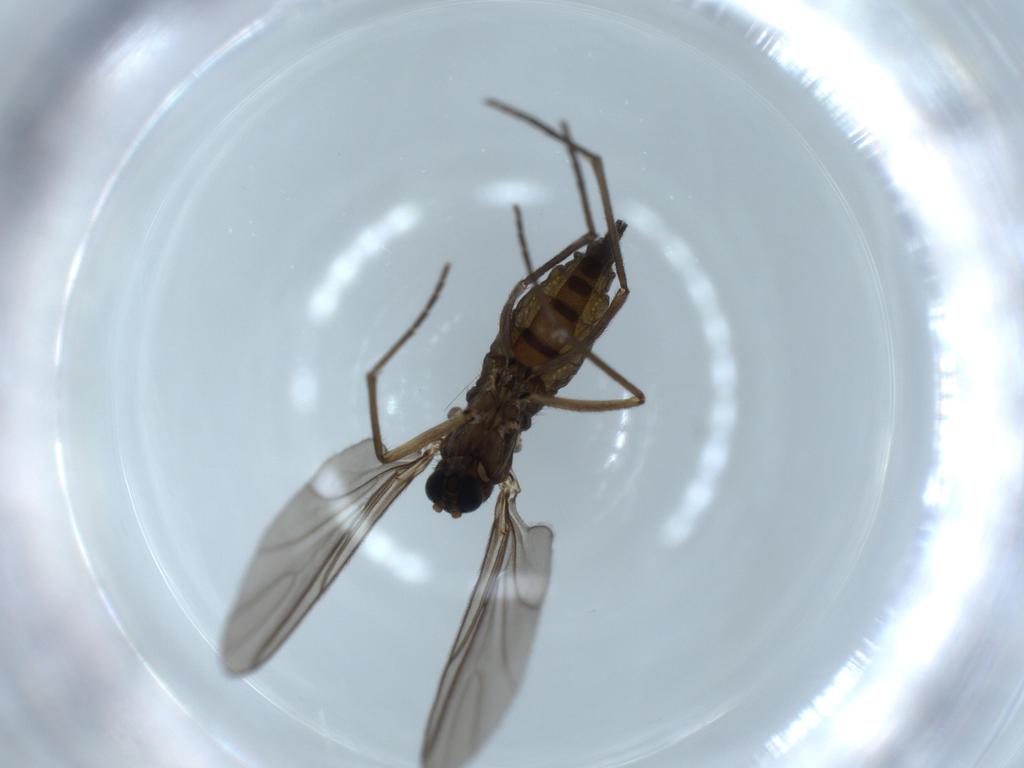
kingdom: Animalia
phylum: Arthropoda
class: Insecta
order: Diptera
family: Sciaridae
